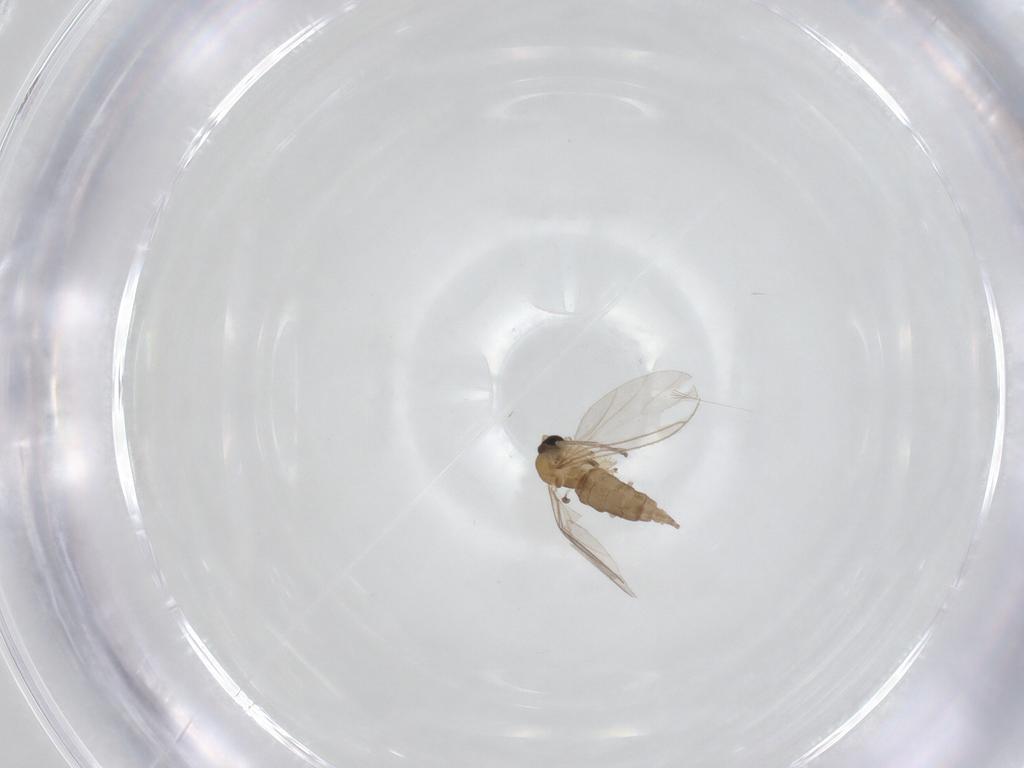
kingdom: Animalia
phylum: Arthropoda
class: Insecta
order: Diptera
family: Sciaridae
